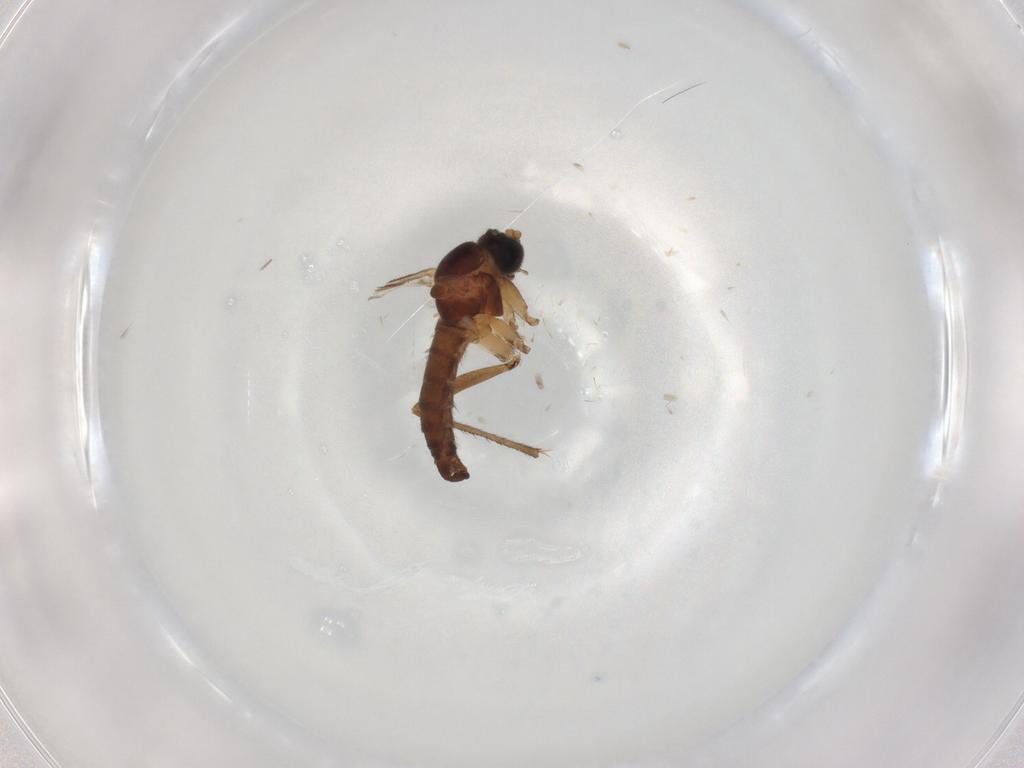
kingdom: Animalia
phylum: Arthropoda
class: Insecta
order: Diptera
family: Sciaridae
